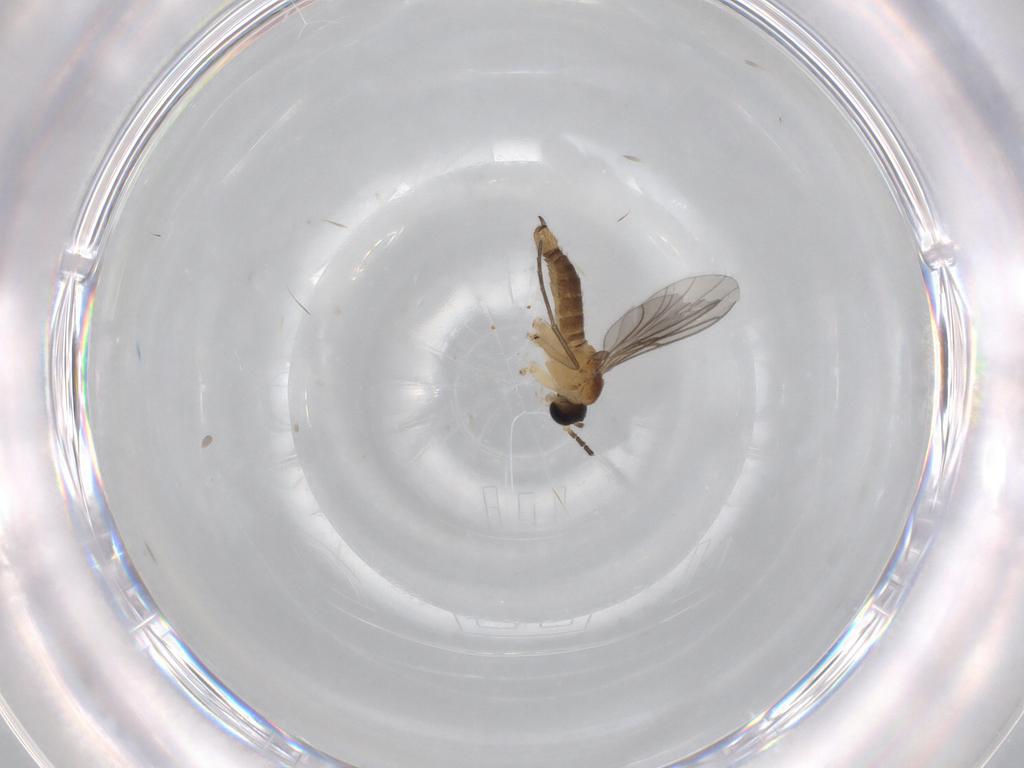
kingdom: Animalia
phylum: Arthropoda
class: Insecta
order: Diptera
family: Sciaridae
